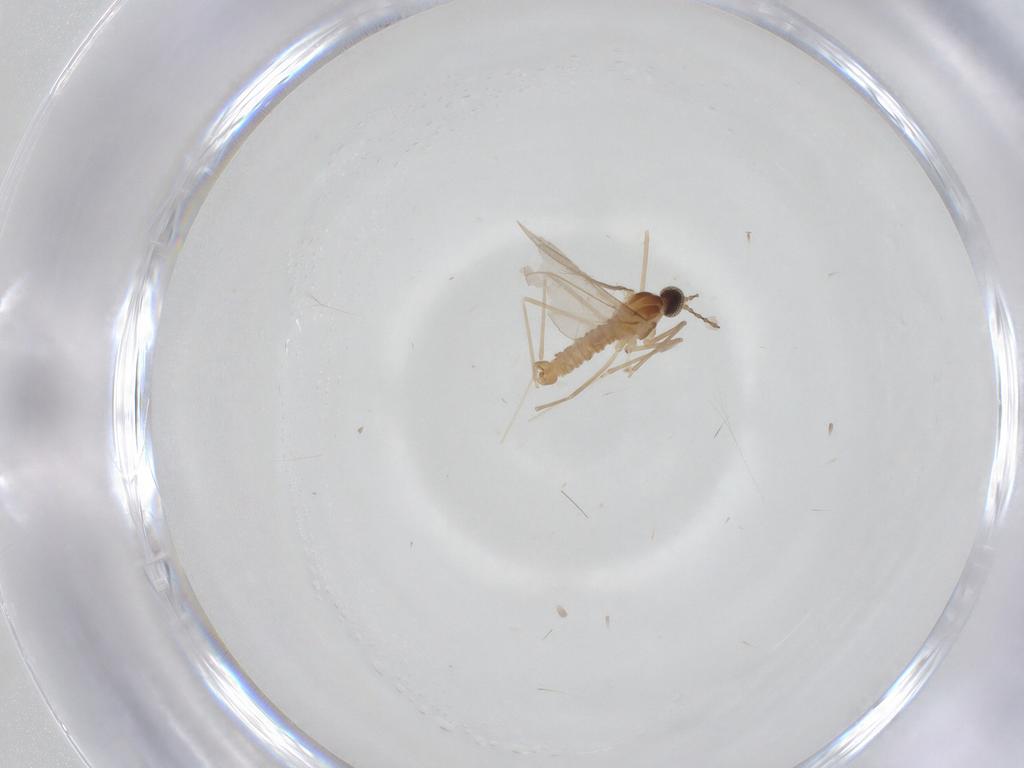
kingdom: Animalia
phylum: Arthropoda
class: Insecta
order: Diptera
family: Cecidomyiidae
